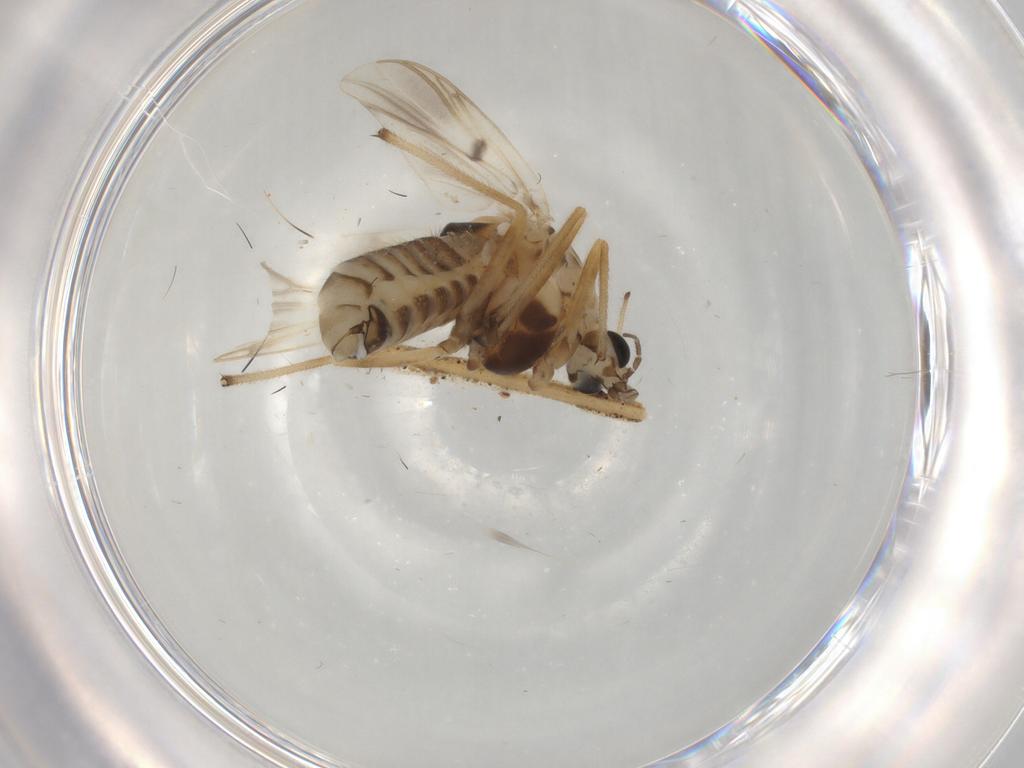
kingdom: Animalia
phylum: Arthropoda
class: Insecta
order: Diptera
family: Chironomidae
